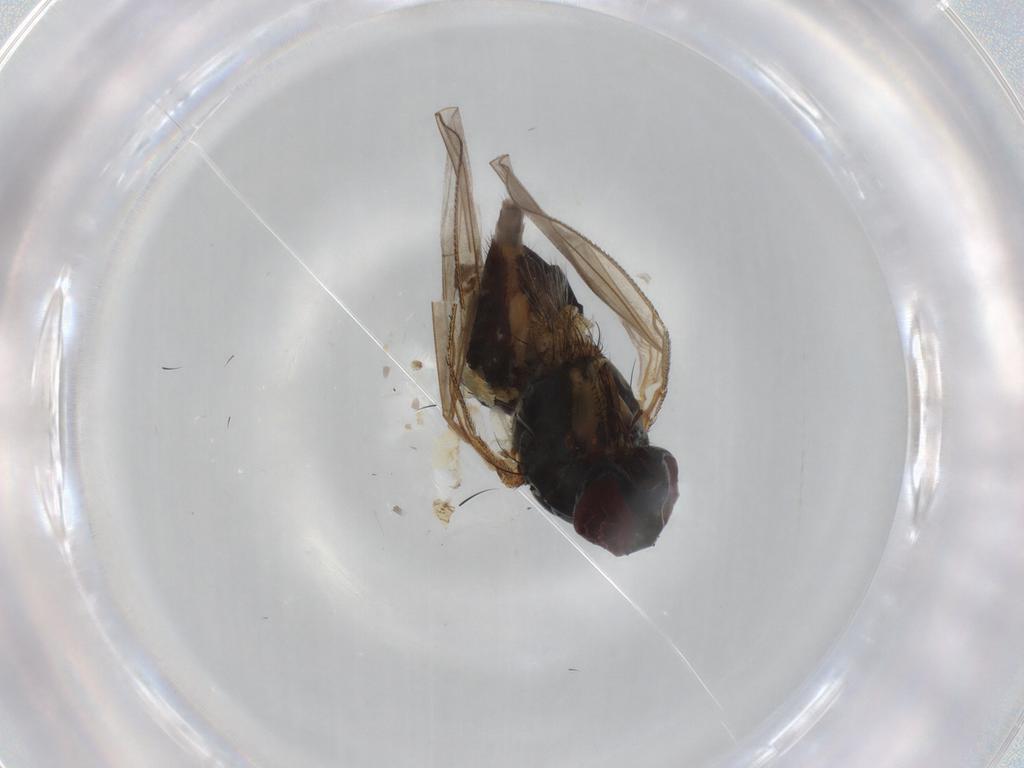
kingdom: Animalia
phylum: Arthropoda
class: Insecta
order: Diptera
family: Glossinidae
